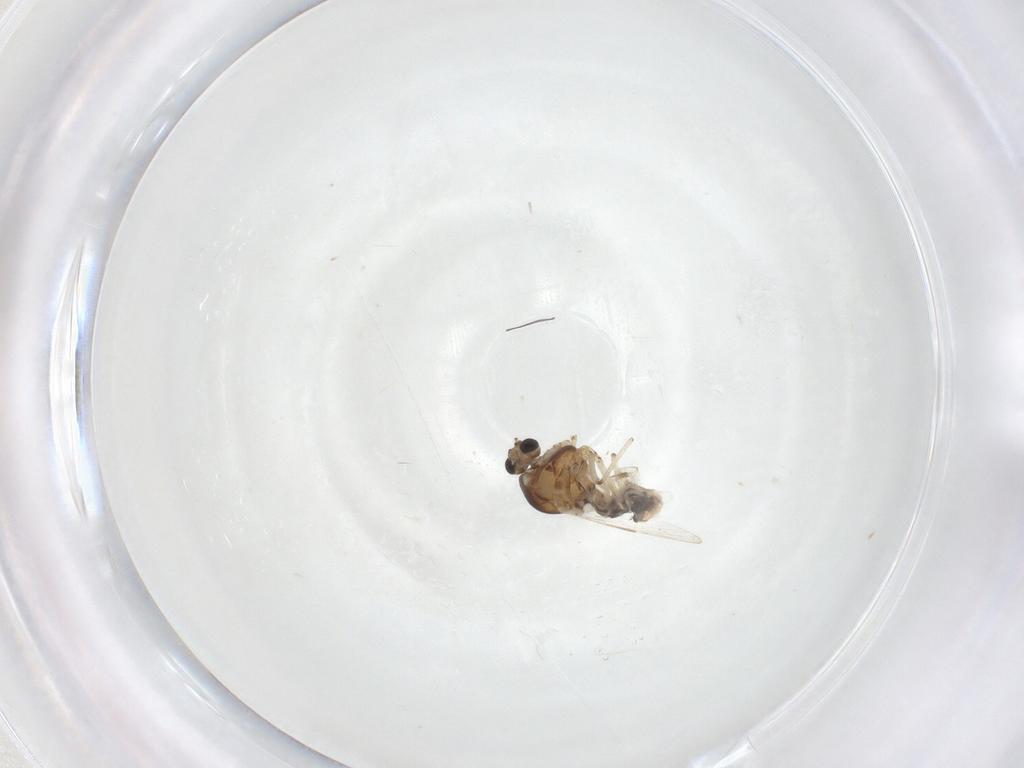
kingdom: Animalia
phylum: Arthropoda
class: Insecta
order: Diptera
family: Ceratopogonidae
